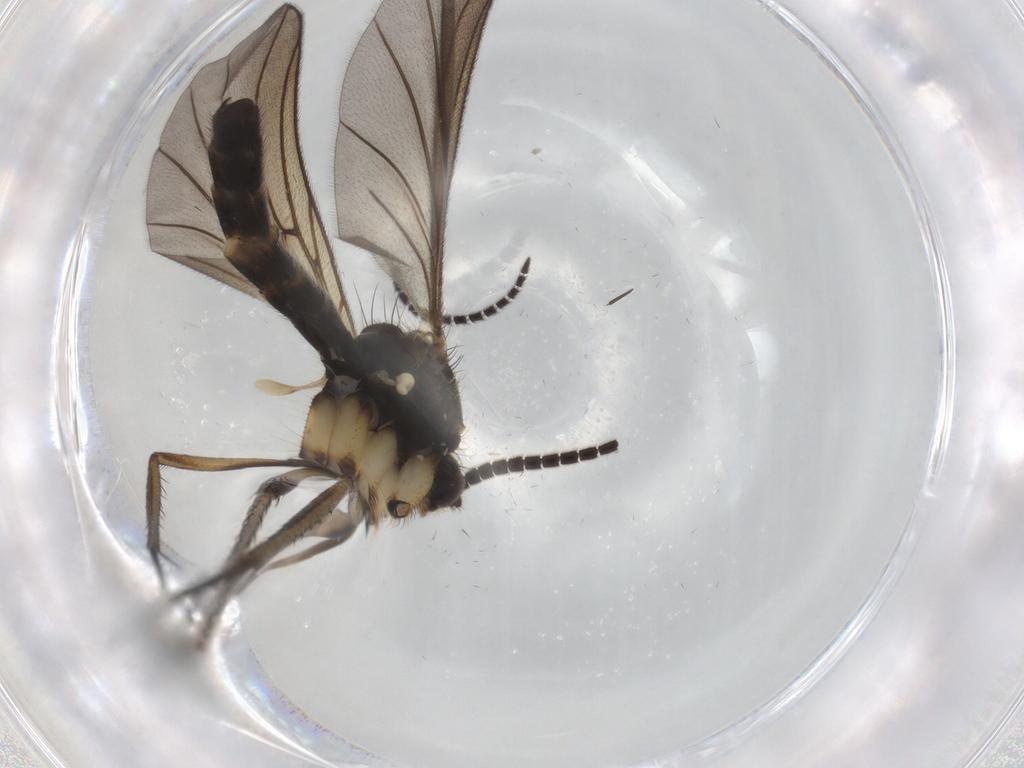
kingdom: Animalia
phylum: Arthropoda
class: Insecta
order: Diptera
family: Mycetophilidae
